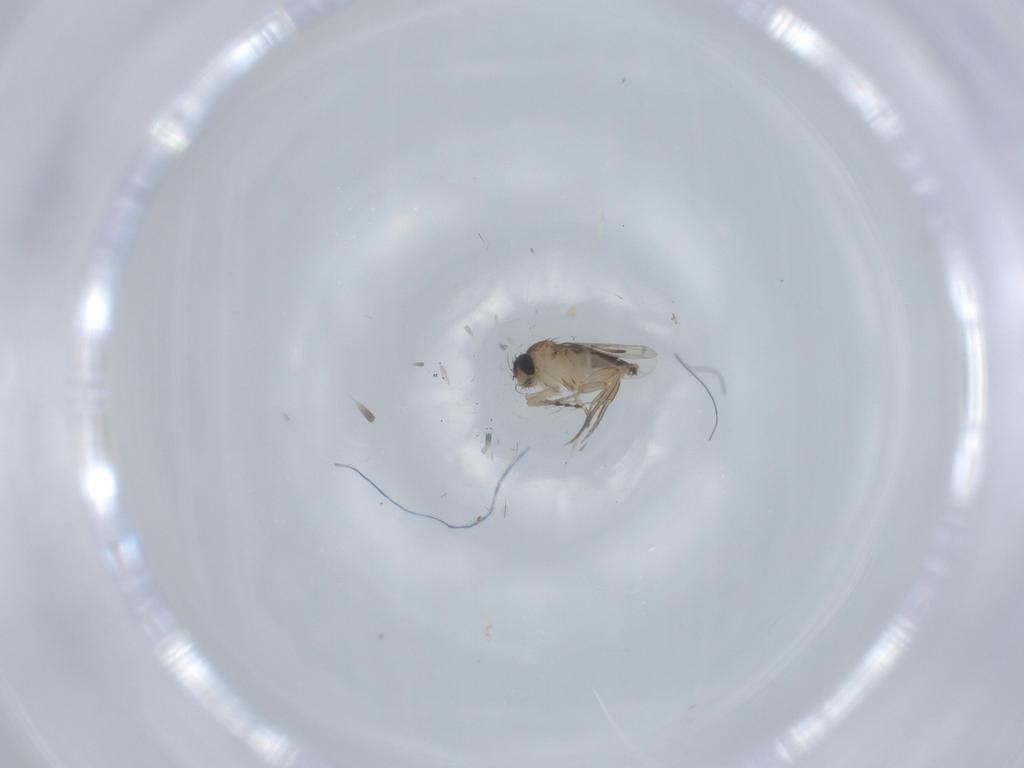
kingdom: Animalia
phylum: Arthropoda
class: Insecta
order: Diptera
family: Phoridae
